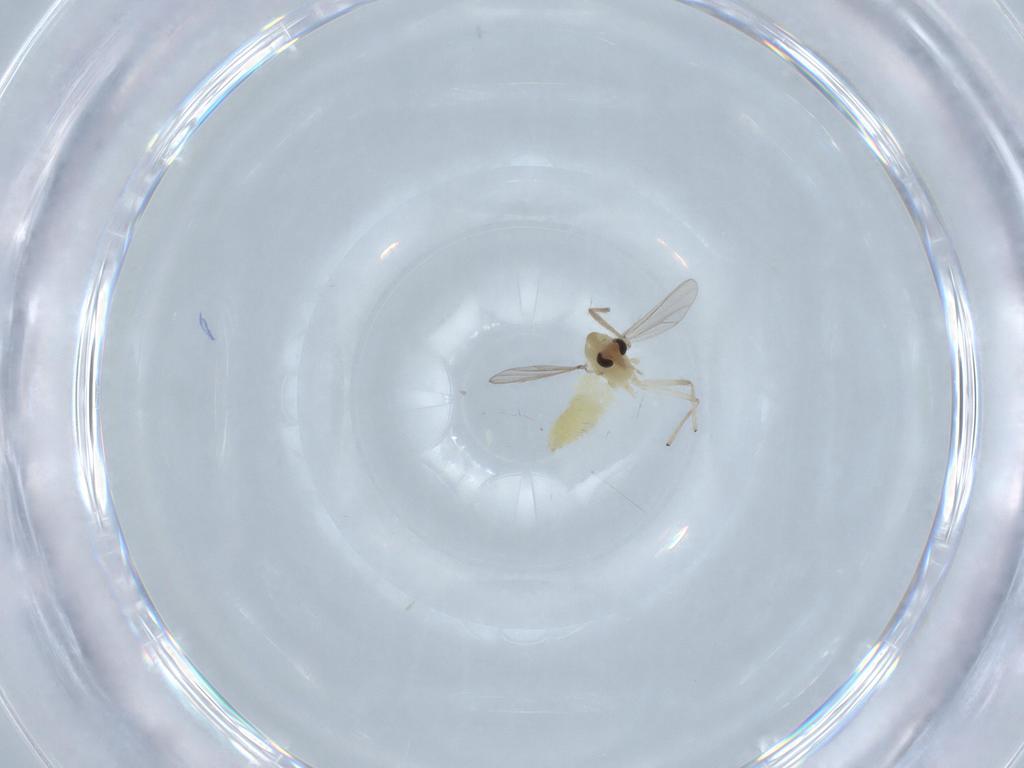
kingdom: Animalia
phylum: Arthropoda
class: Insecta
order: Diptera
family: Chironomidae
